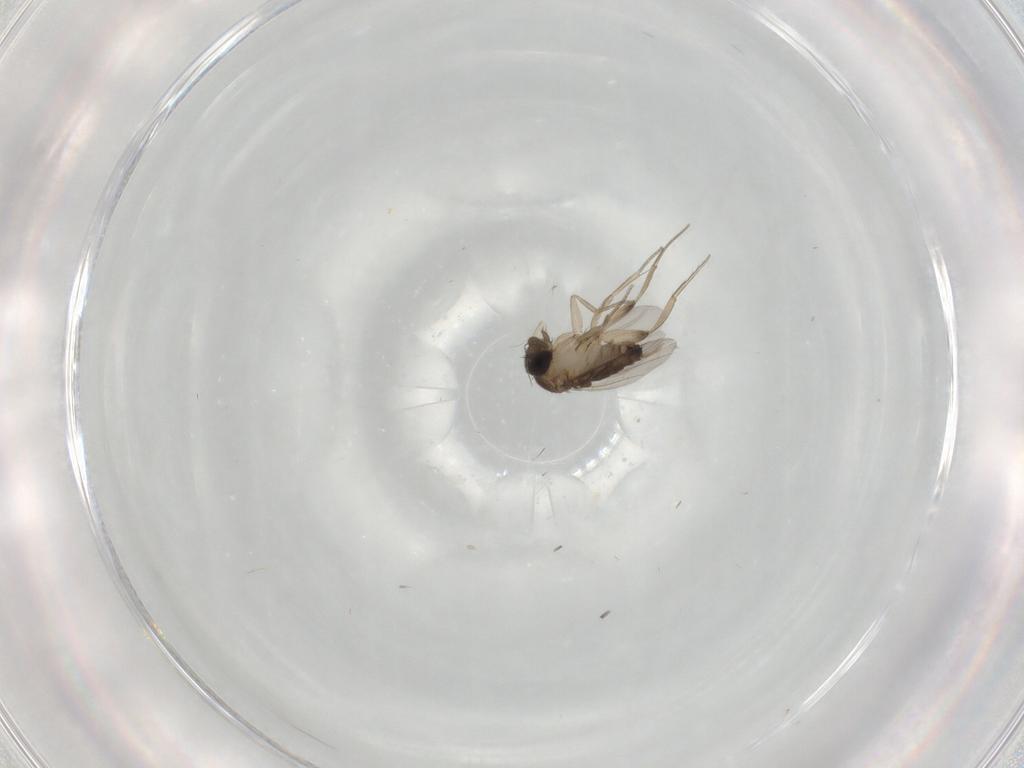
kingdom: Animalia
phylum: Arthropoda
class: Insecta
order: Diptera
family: Phoridae
